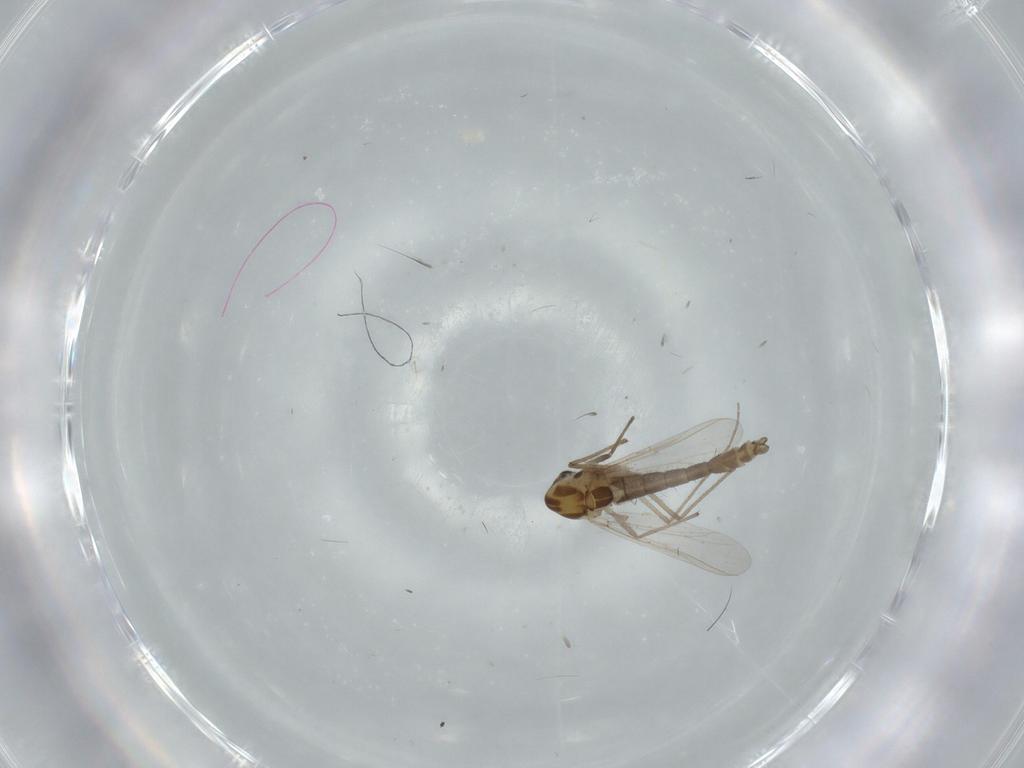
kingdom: Animalia
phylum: Arthropoda
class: Insecta
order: Diptera
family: Chironomidae
